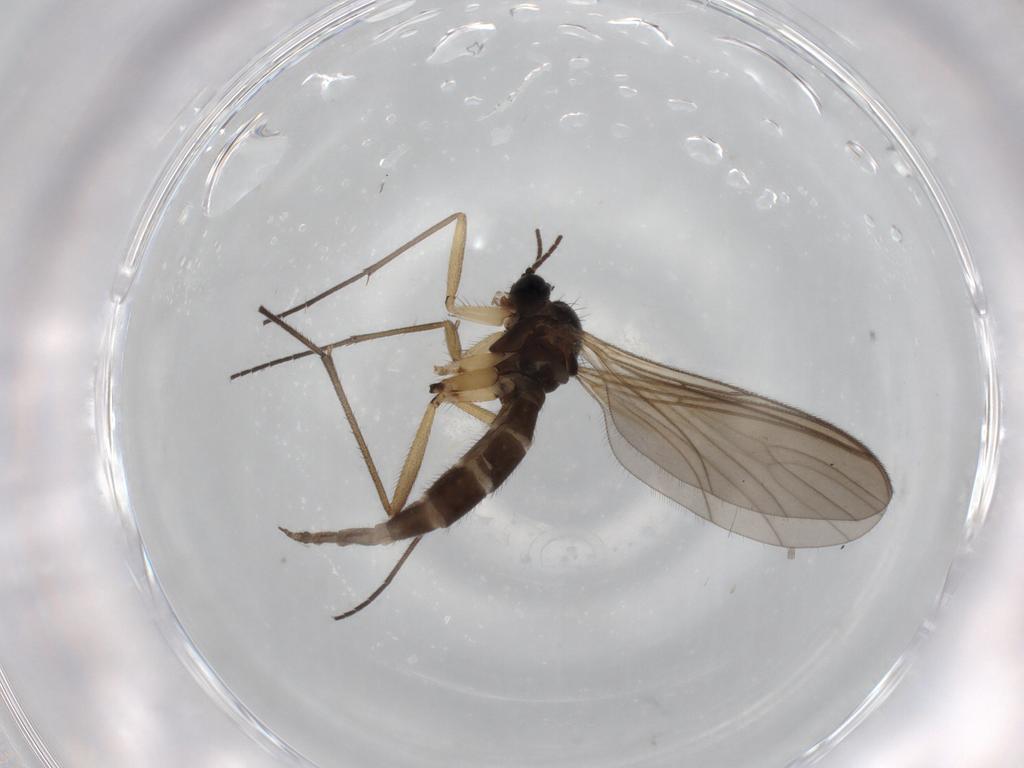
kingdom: Animalia
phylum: Arthropoda
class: Insecta
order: Diptera
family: Sciaridae
